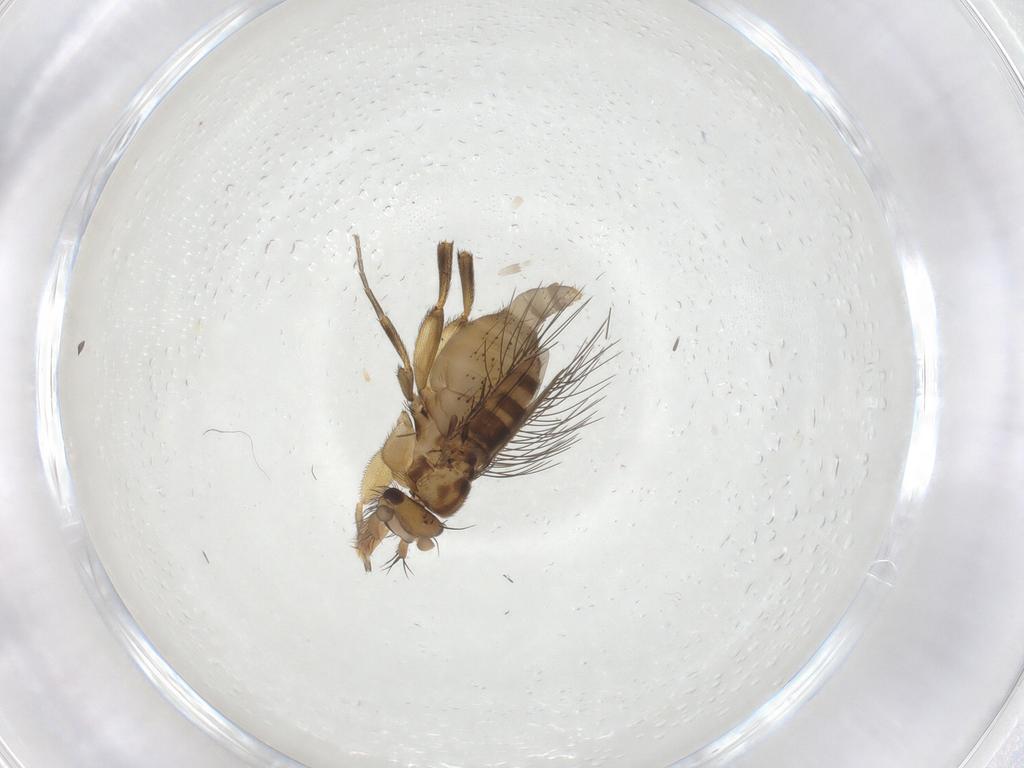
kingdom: Animalia
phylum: Arthropoda
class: Insecta
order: Diptera
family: Phoridae
